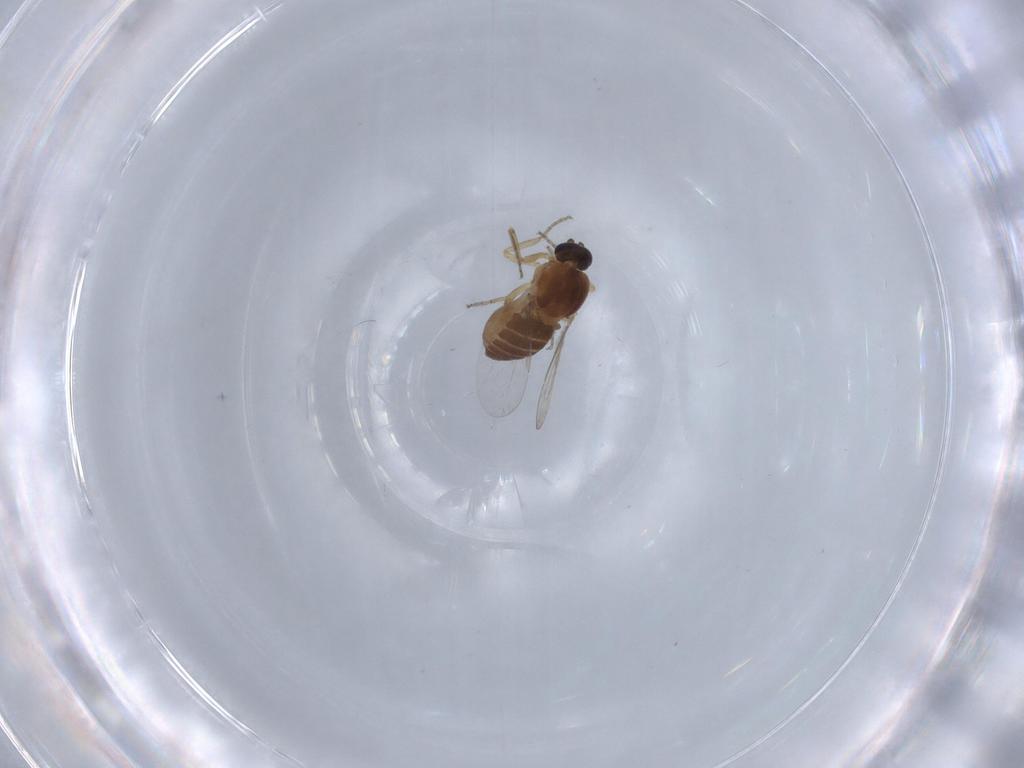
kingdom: Animalia
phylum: Arthropoda
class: Insecta
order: Diptera
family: Ceratopogonidae
